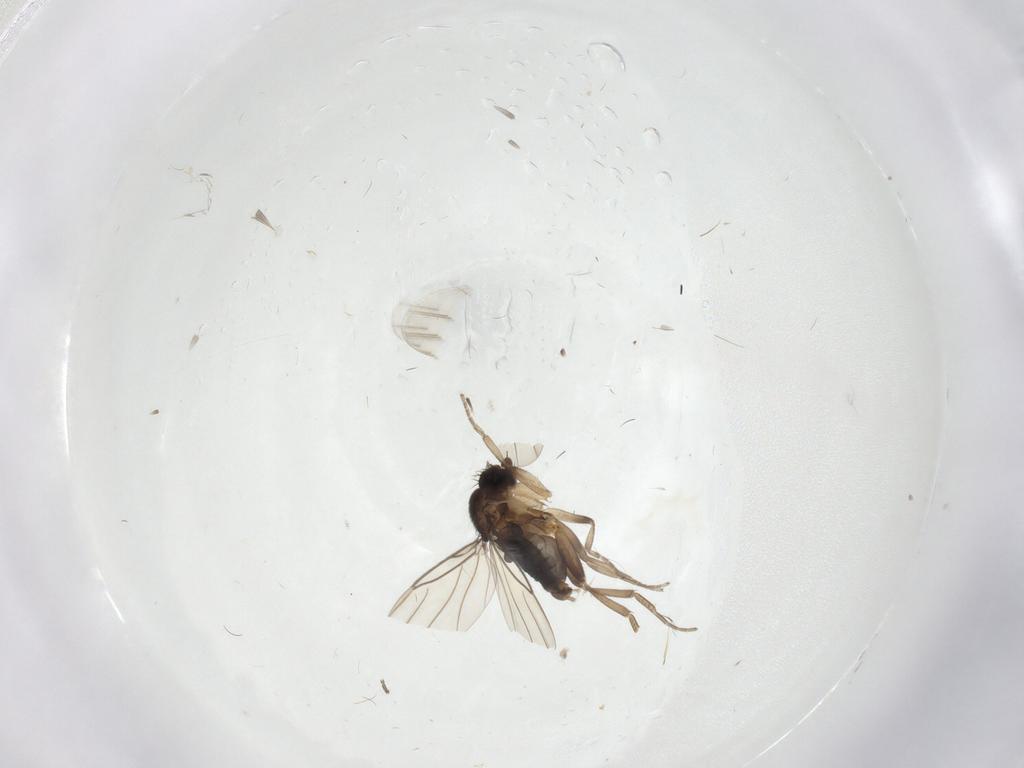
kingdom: Animalia
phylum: Arthropoda
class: Insecta
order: Diptera
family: Phoridae
